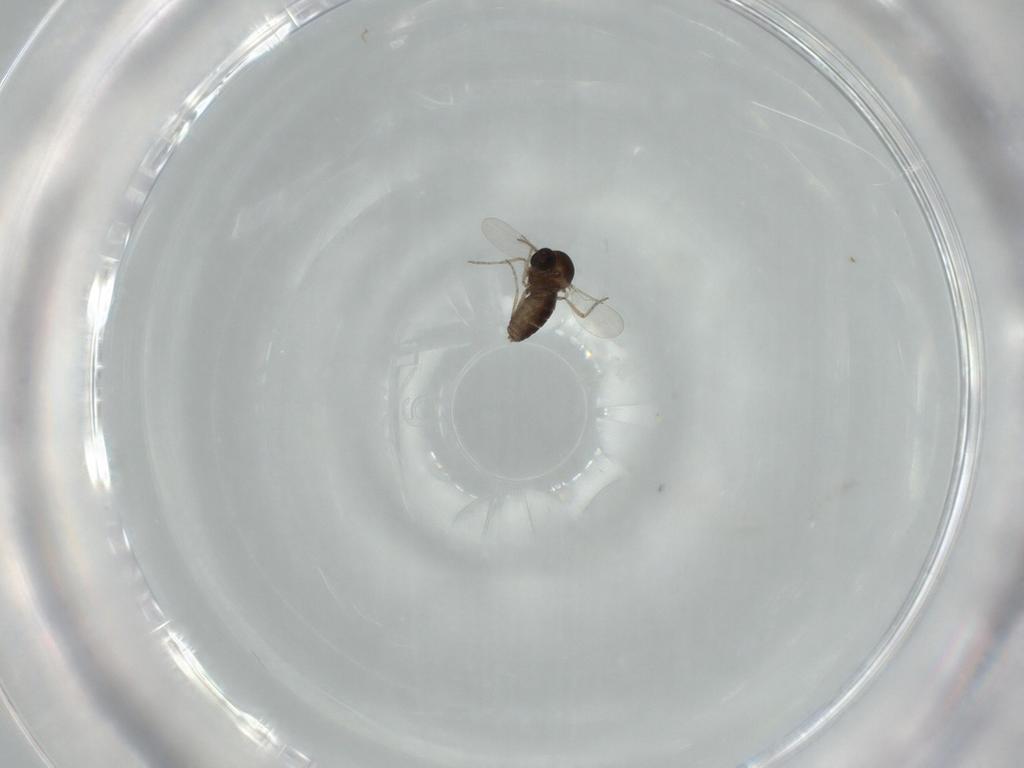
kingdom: Animalia
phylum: Arthropoda
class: Insecta
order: Diptera
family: Ceratopogonidae
